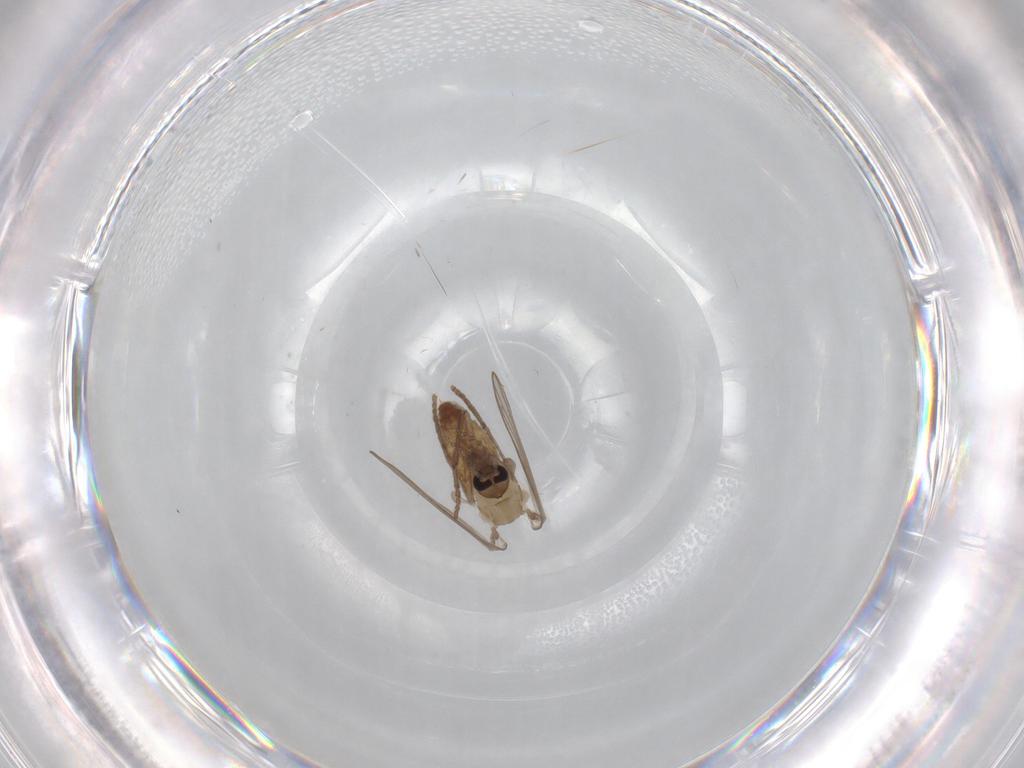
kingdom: Animalia
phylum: Arthropoda
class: Insecta
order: Diptera
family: Psychodidae
